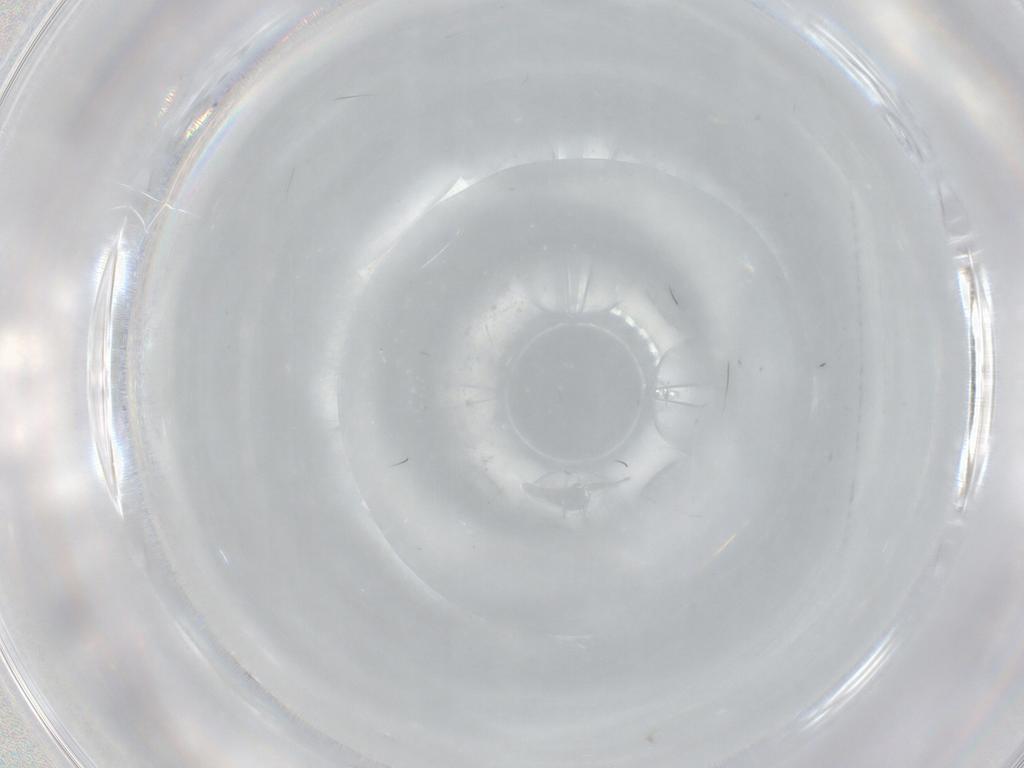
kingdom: Animalia
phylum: Arthropoda
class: Insecta
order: Diptera
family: Sciaridae
